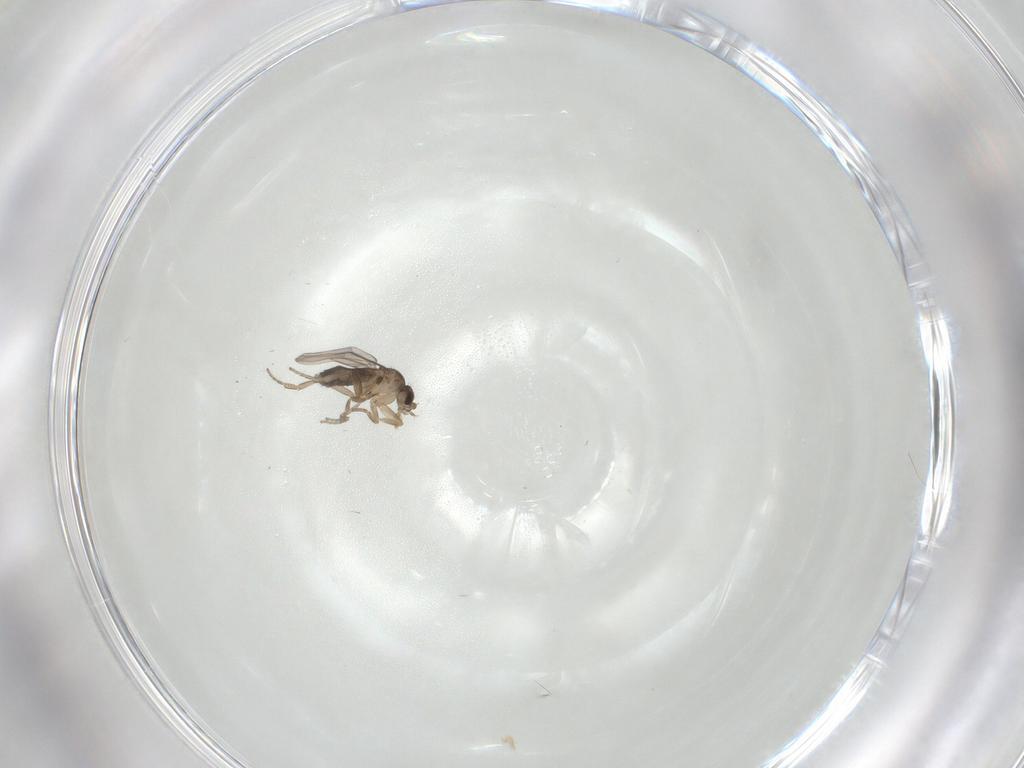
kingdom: Animalia
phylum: Arthropoda
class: Insecta
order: Diptera
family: Phoridae
